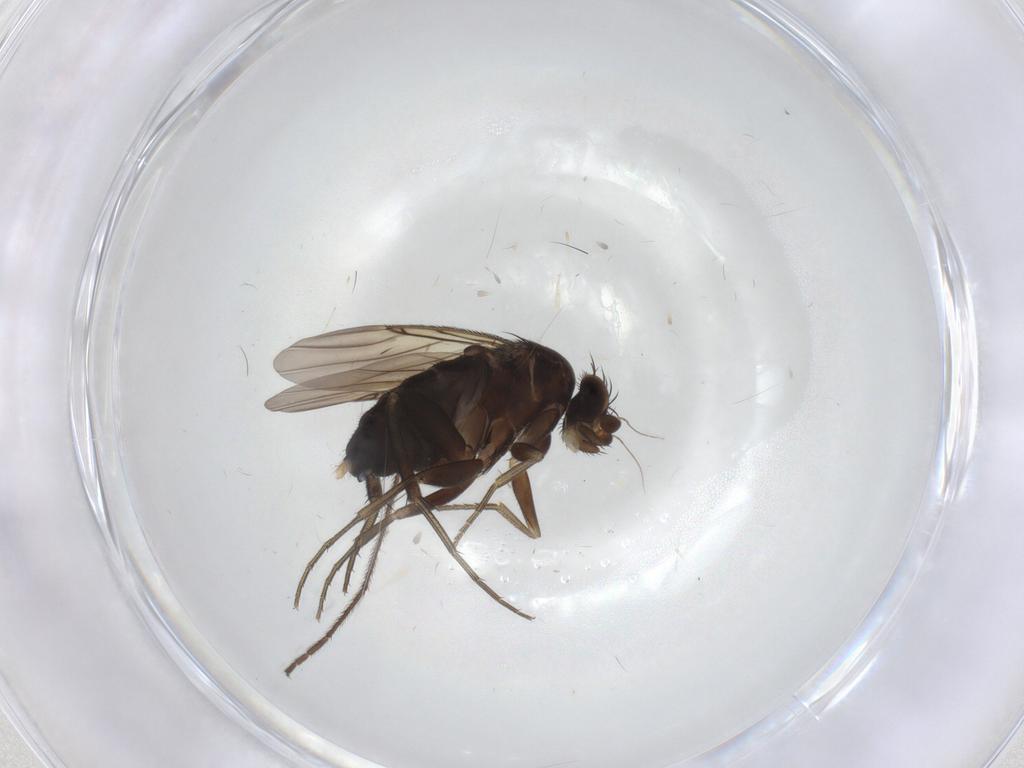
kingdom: Animalia
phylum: Arthropoda
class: Insecta
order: Diptera
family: Phoridae
